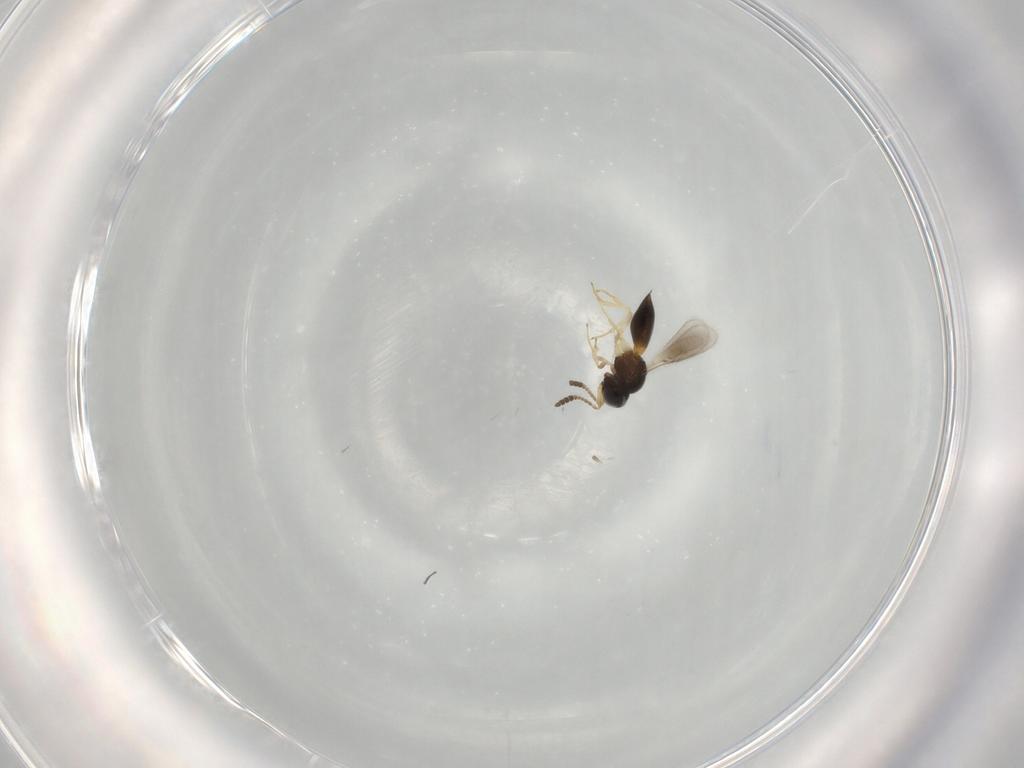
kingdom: Animalia
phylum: Arthropoda
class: Insecta
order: Hymenoptera
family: Scelionidae
